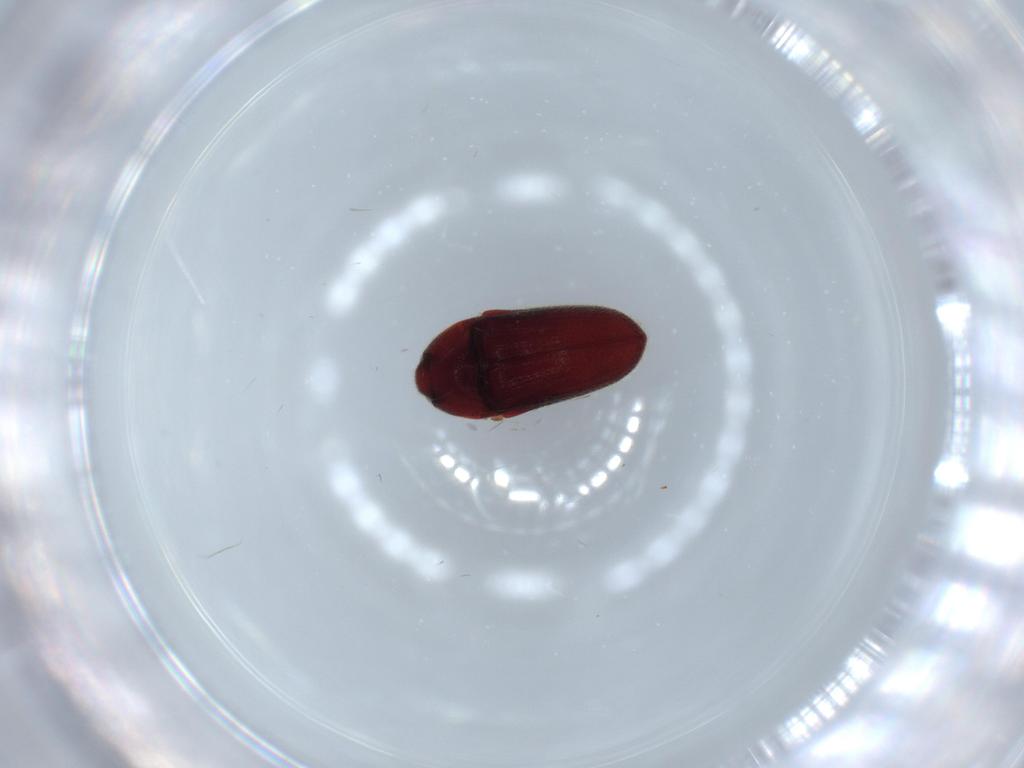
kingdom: Animalia
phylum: Arthropoda
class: Insecta
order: Coleoptera
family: Throscidae
